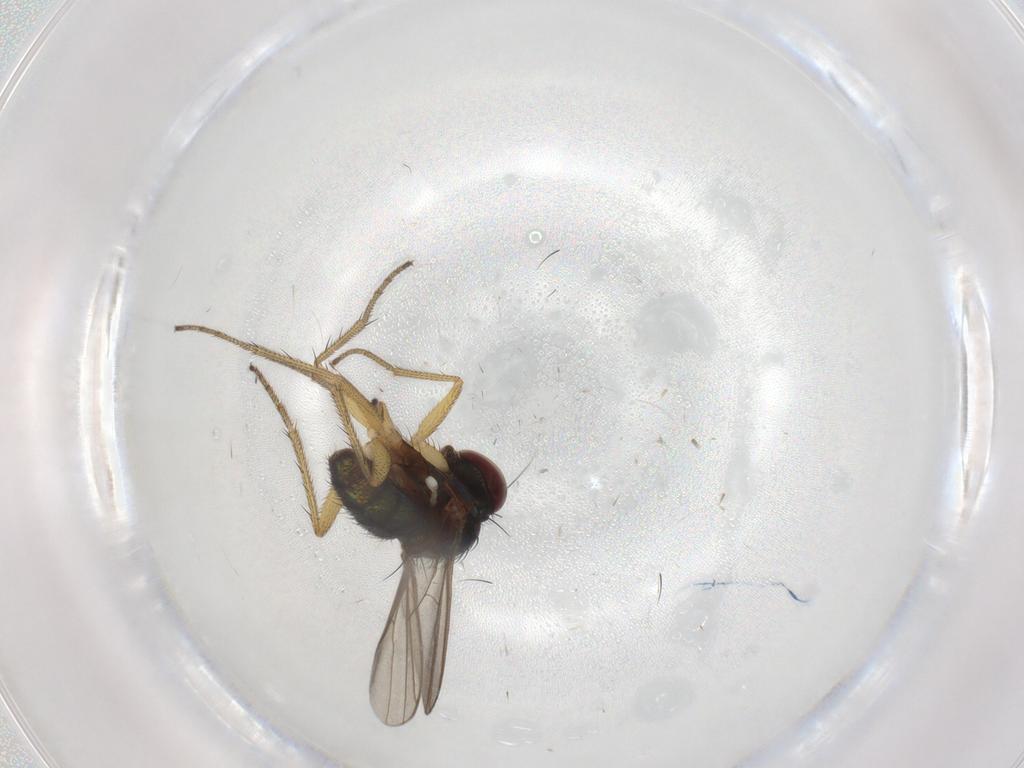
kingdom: Animalia
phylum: Arthropoda
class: Insecta
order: Diptera
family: Chironomidae
